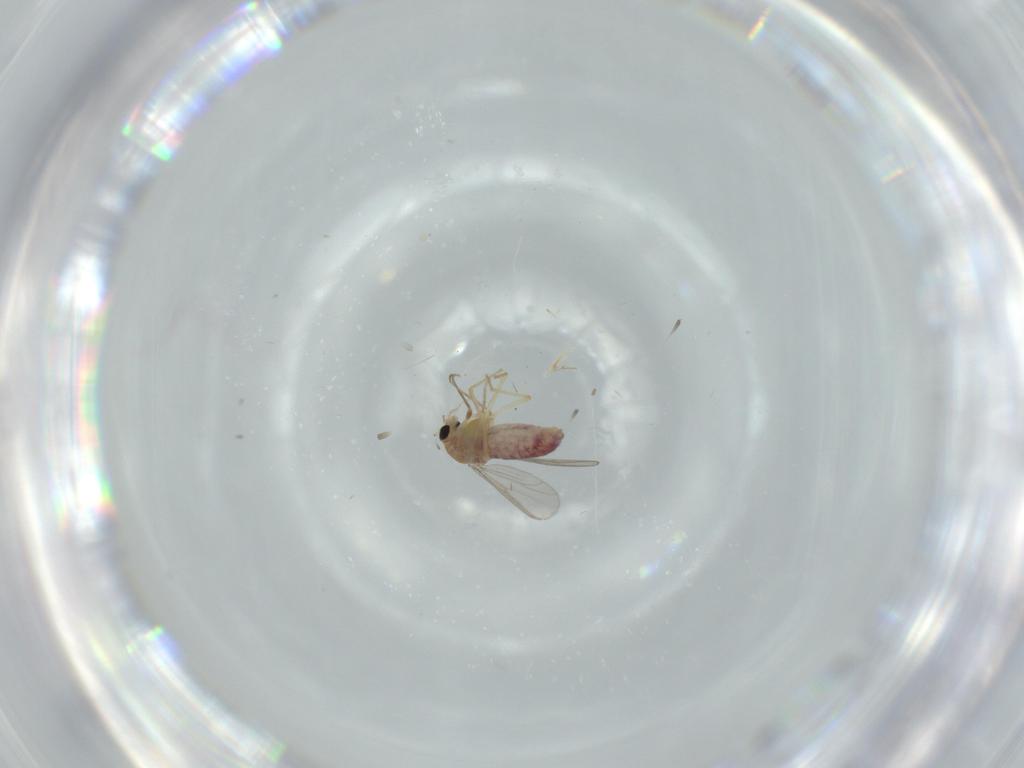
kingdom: Animalia
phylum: Arthropoda
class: Insecta
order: Diptera
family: Chironomidae
